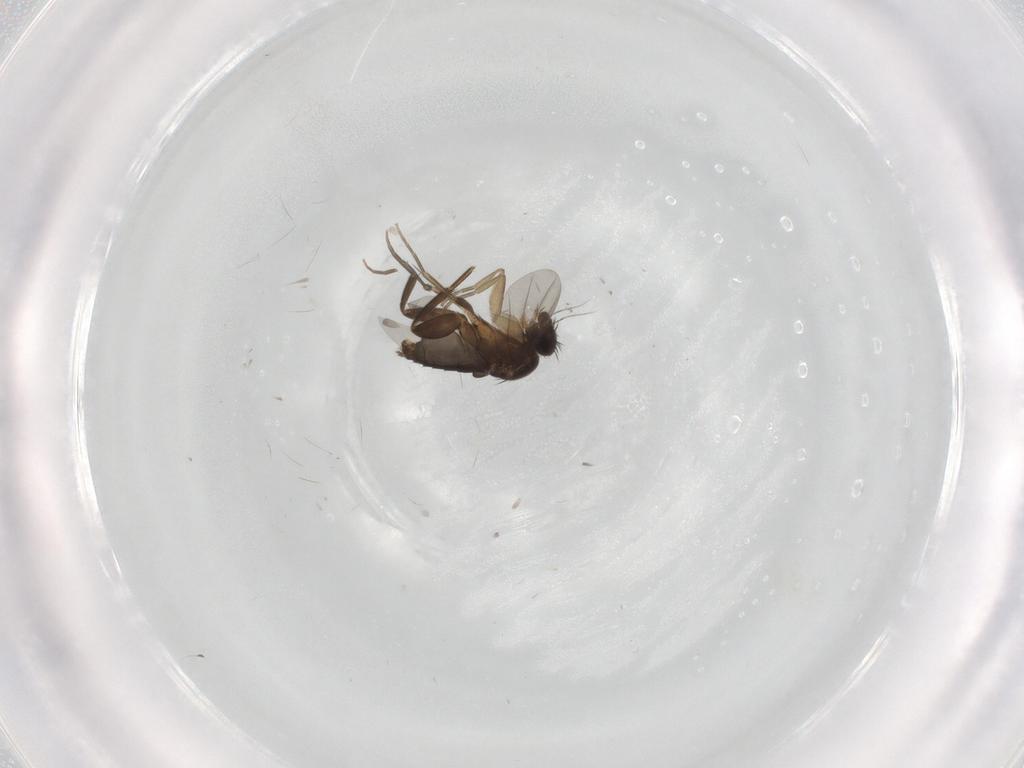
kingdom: Animalia
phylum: Arthropoda
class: Insecta
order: Diptera
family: Phoridae
